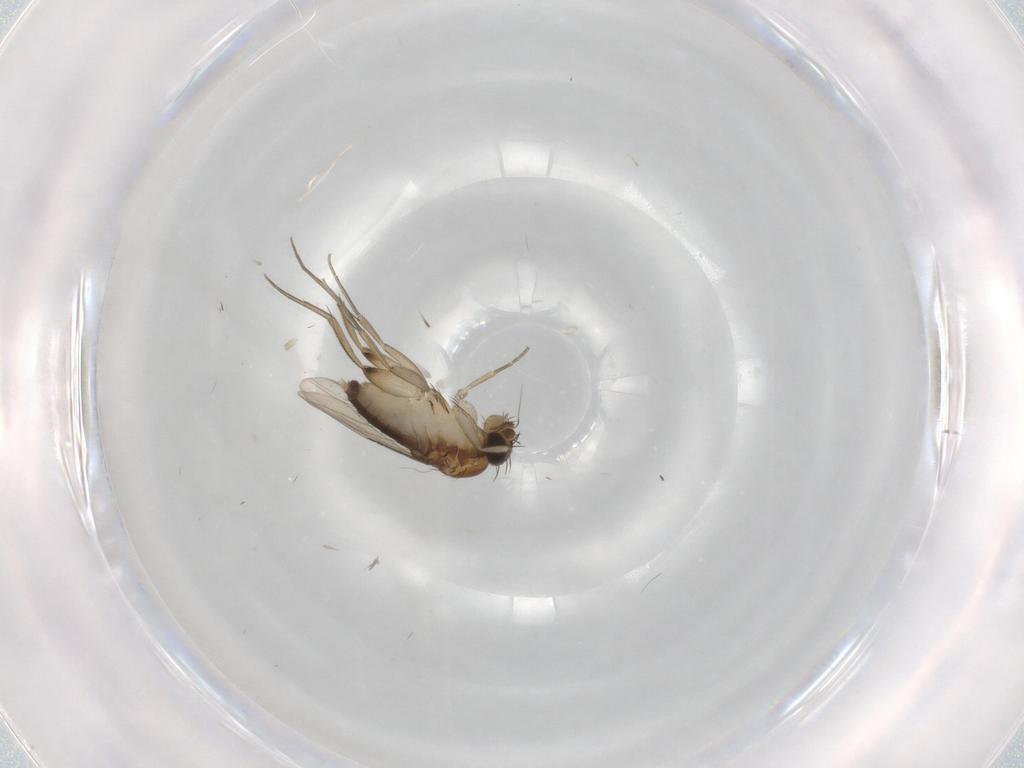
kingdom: Animalia
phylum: Arthropoda
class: Insecta
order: Diptera
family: Phoridae
